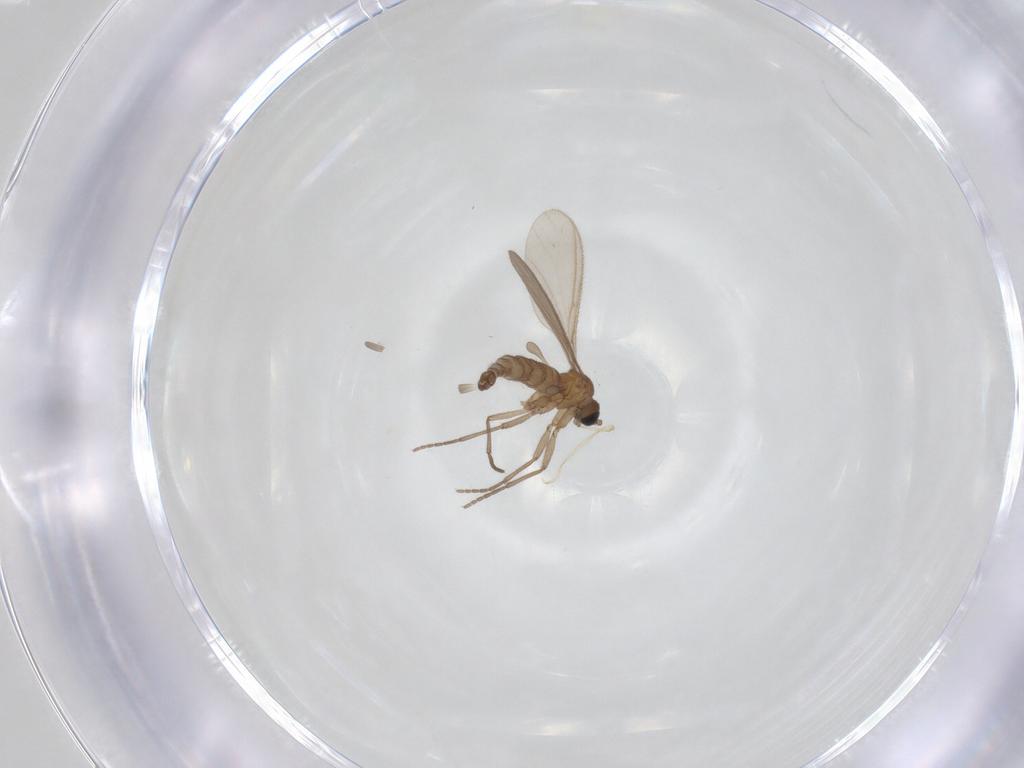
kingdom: Animalia
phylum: Arthropoda
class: Insecta
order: Diptera
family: Sciaridae
